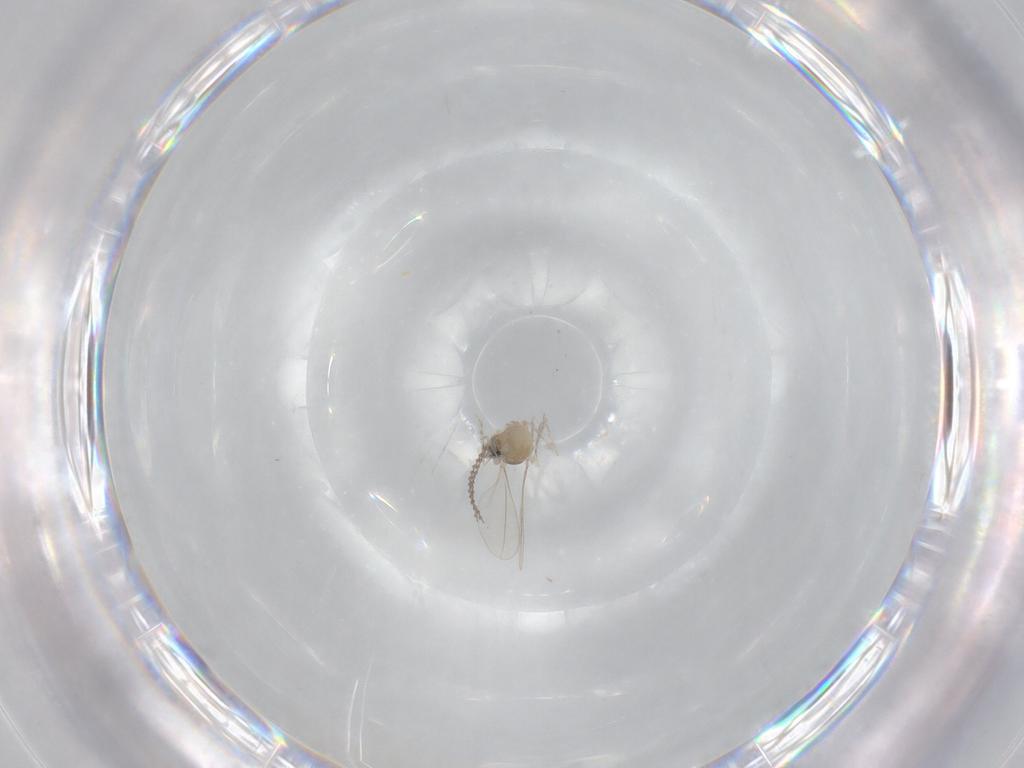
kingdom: Animalia
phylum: Arthropoda
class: Insecta
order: Diptera
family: Cecidomyiidae
